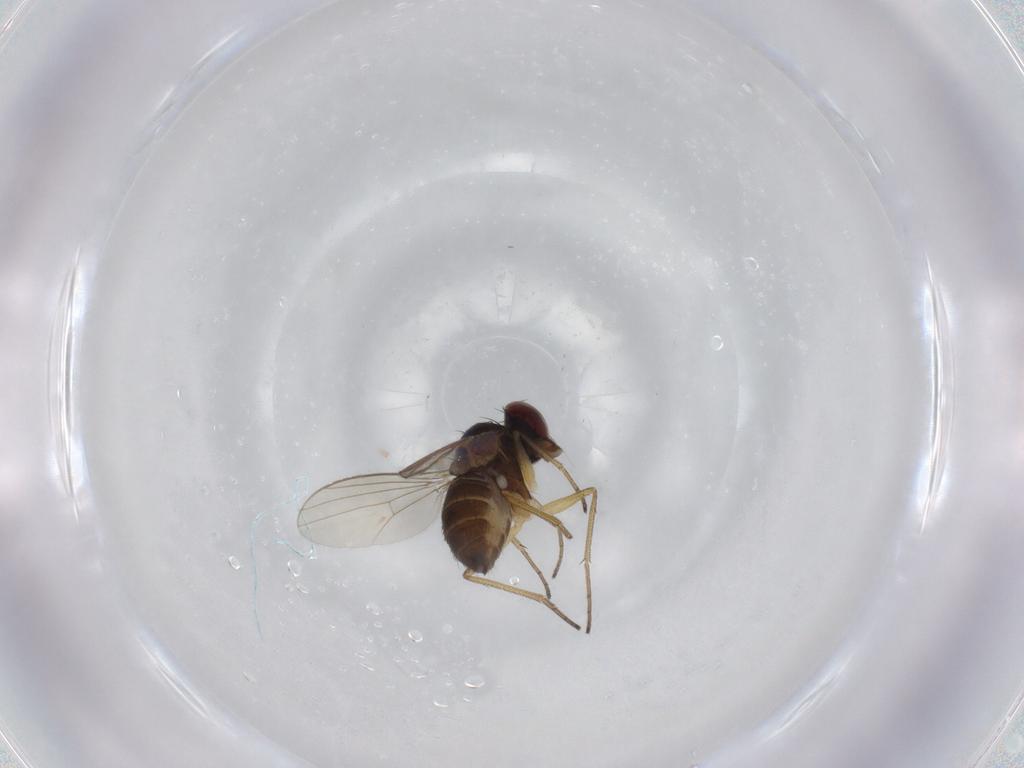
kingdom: Animalia
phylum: Arthropoda
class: Insecta
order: Diptera
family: Dolichopodidae
